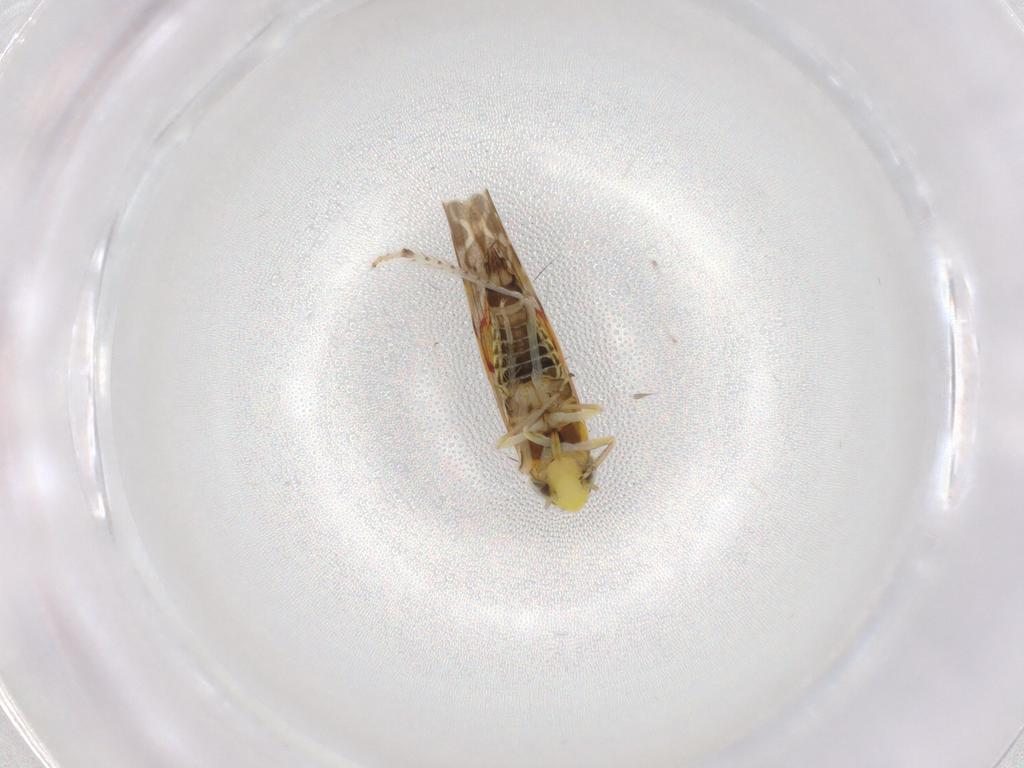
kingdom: Animalia
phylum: Arthropoda
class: Insecta
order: Hemiptera
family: Cicadellidae
